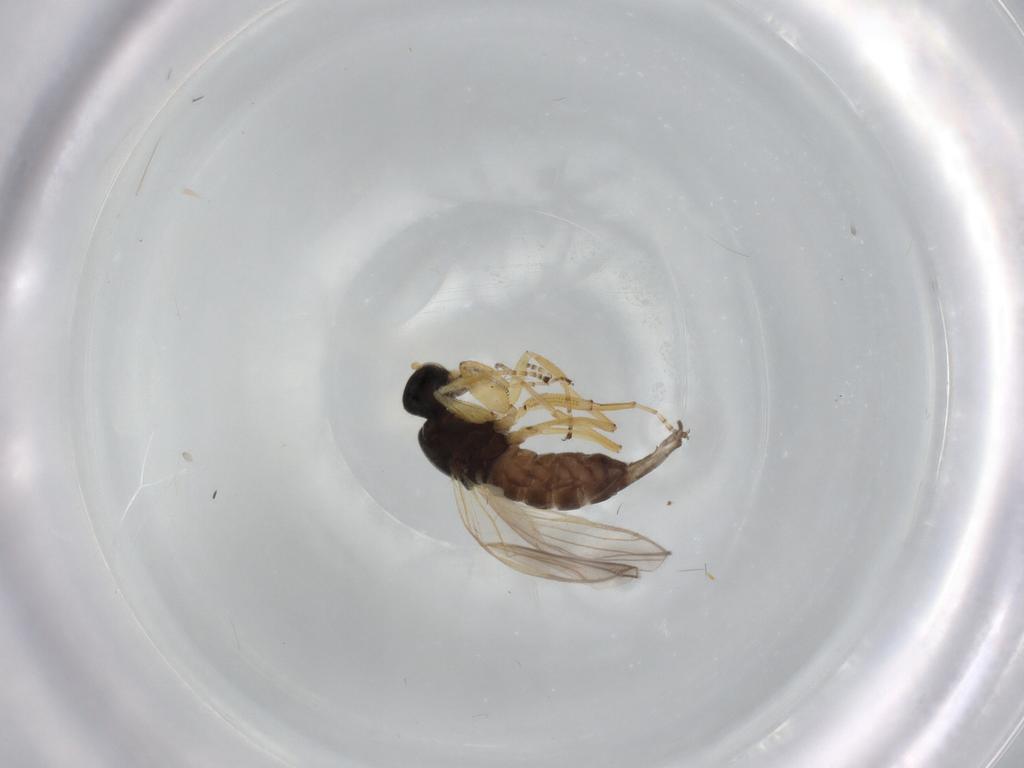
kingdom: Animalia
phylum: Arthropoda
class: Insecta
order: Diptera
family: Hybotidae
